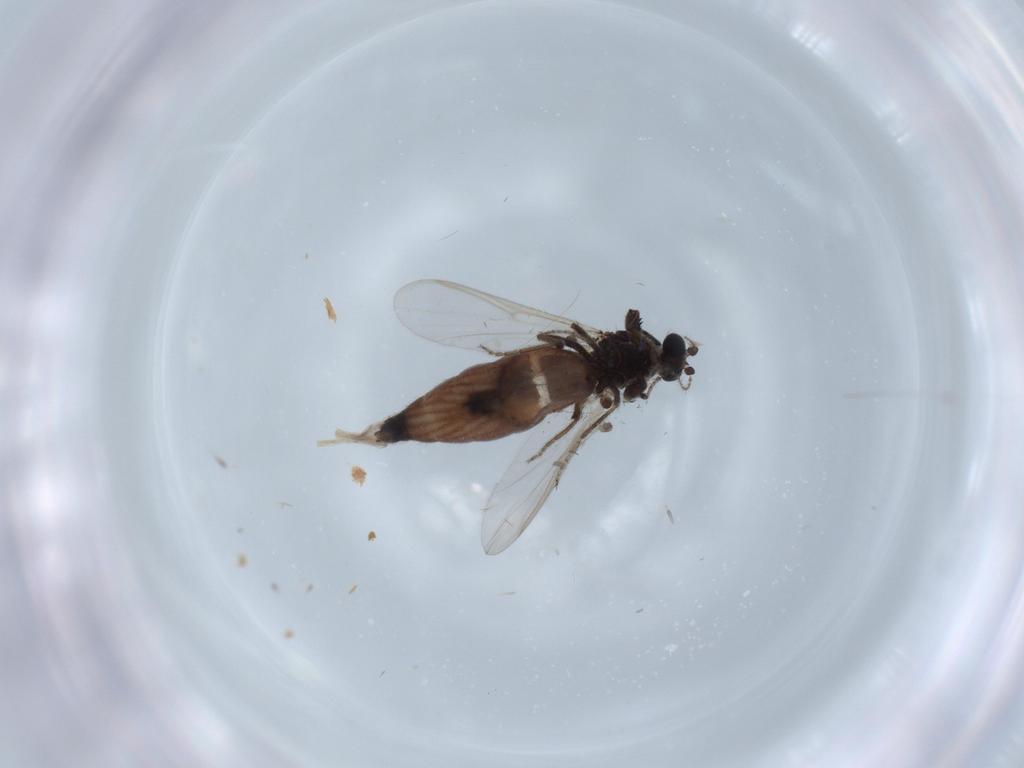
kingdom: Animalia
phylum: Arthropoda
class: Insecta
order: Diptera
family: Ceratopogonidae
